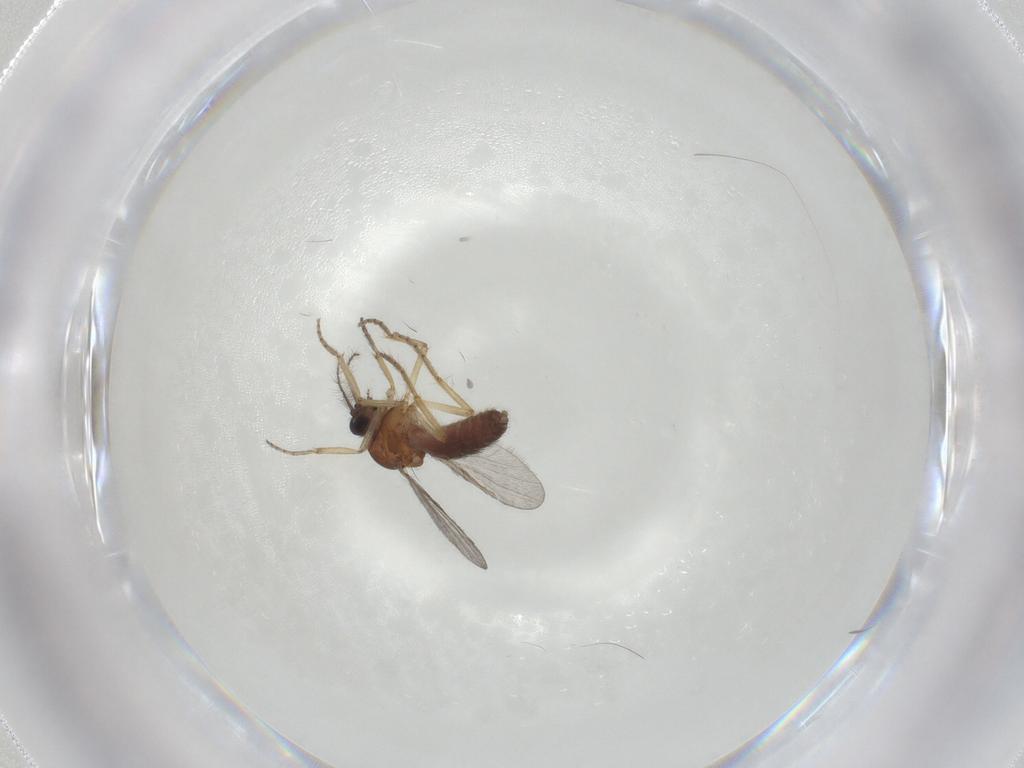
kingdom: Animalia
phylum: Arthropoda
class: Insecta
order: Diptera
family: Ceratopogonidae
